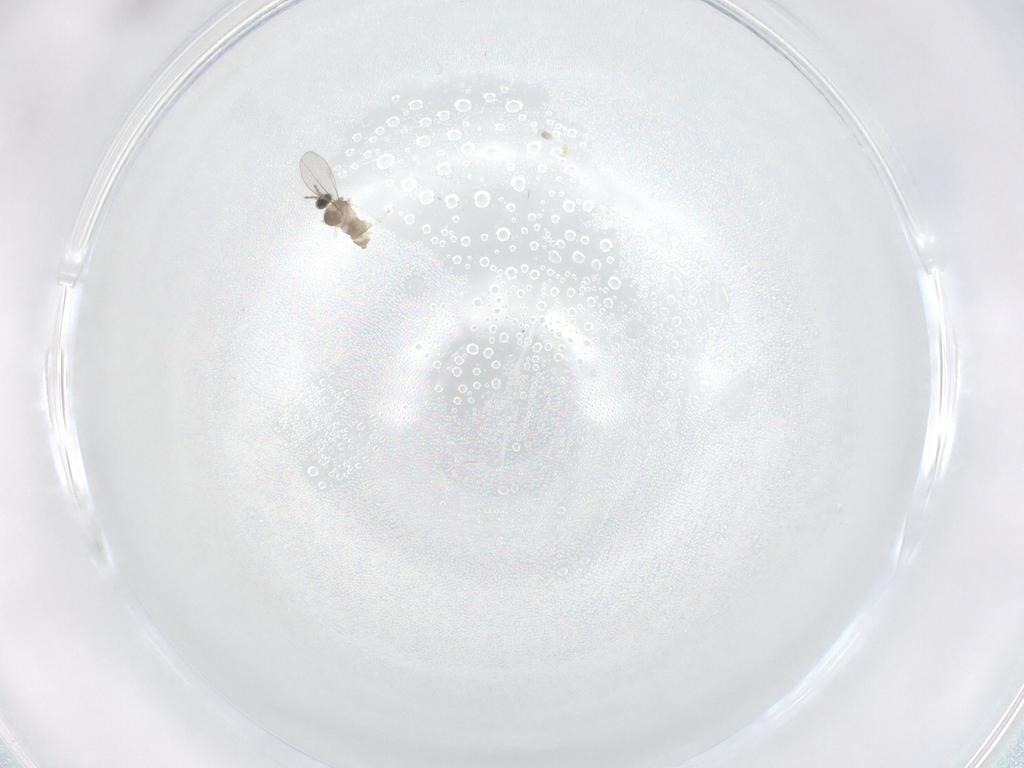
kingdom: Animalia
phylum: Arthropoda
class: Insecta
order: Diptera
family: Cecidomyiidae
